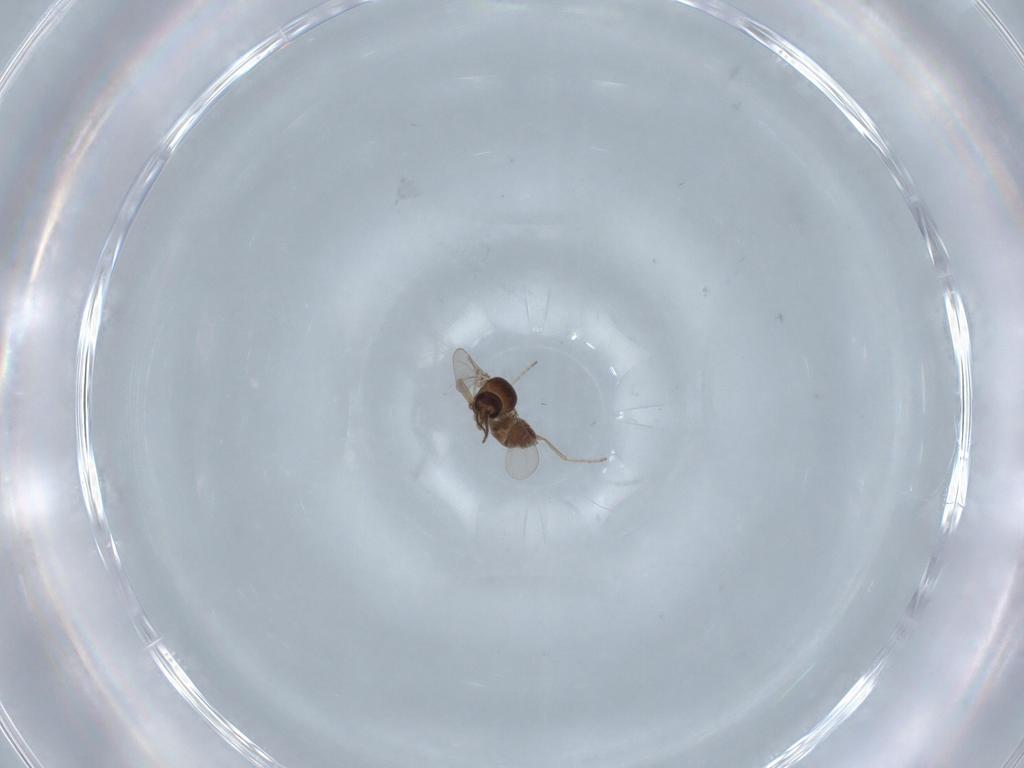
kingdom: Animalia
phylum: Arthropoda
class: Insecta
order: Diptera
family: Ceratopogonidae
